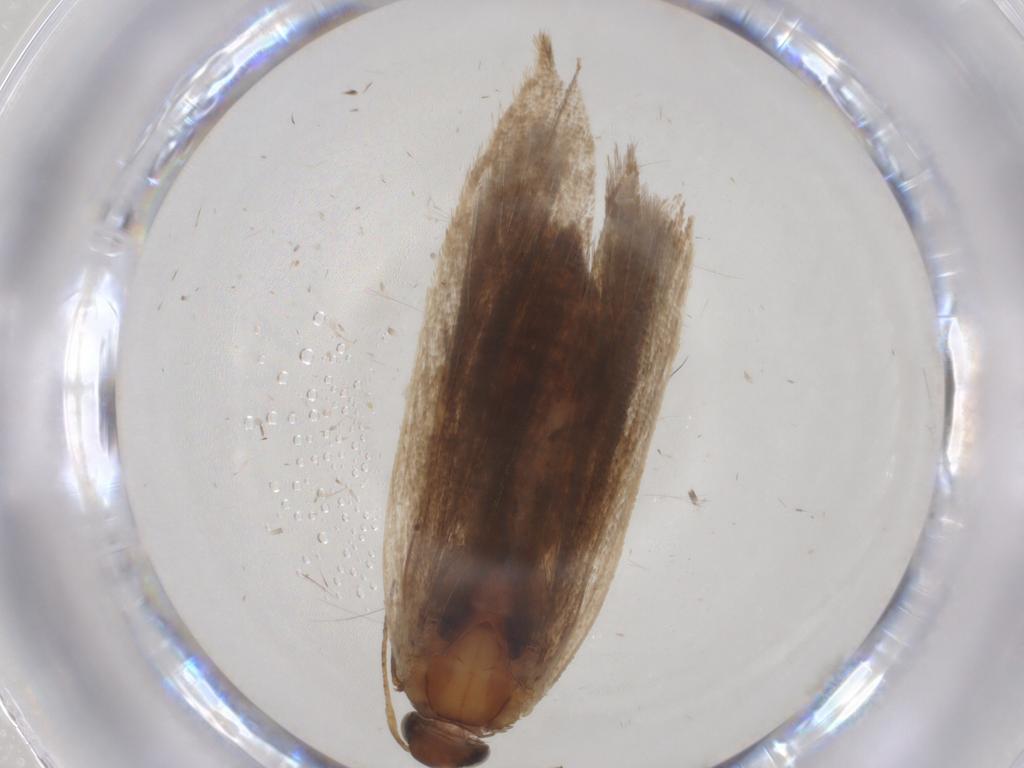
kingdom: Animalia
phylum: Arthropoda
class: Insecta
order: Lepidoptera
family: Gelechiidae
